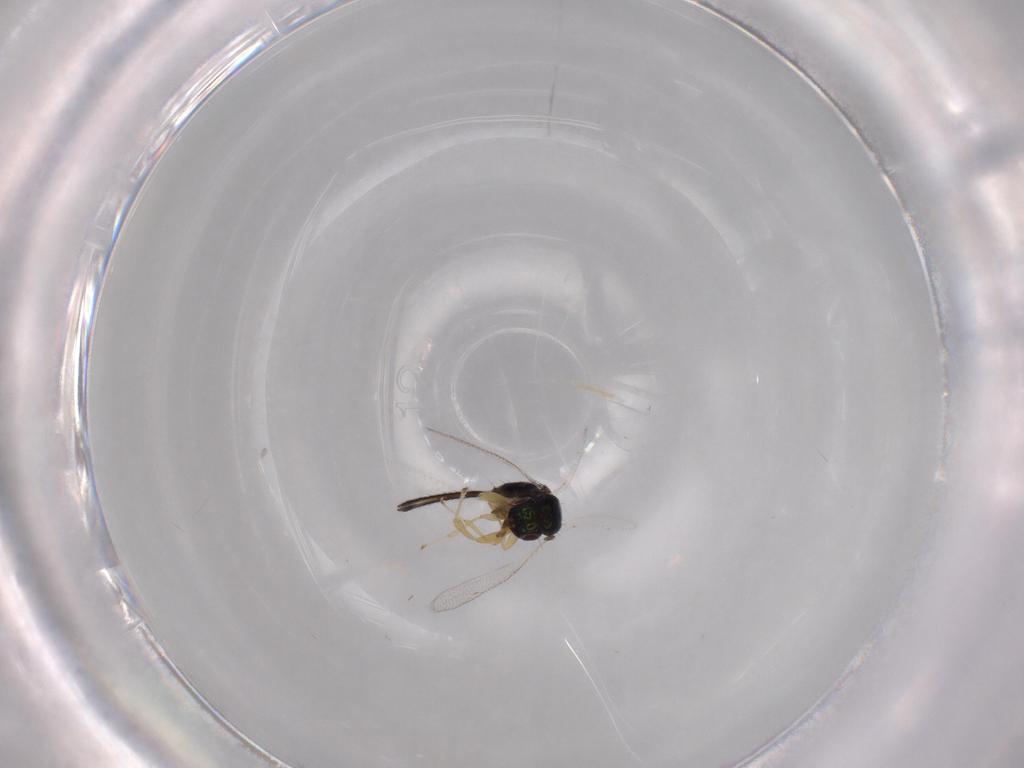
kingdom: Animalia
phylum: Arthropoda
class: Insecta
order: Hymenoptera
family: Torymidae
